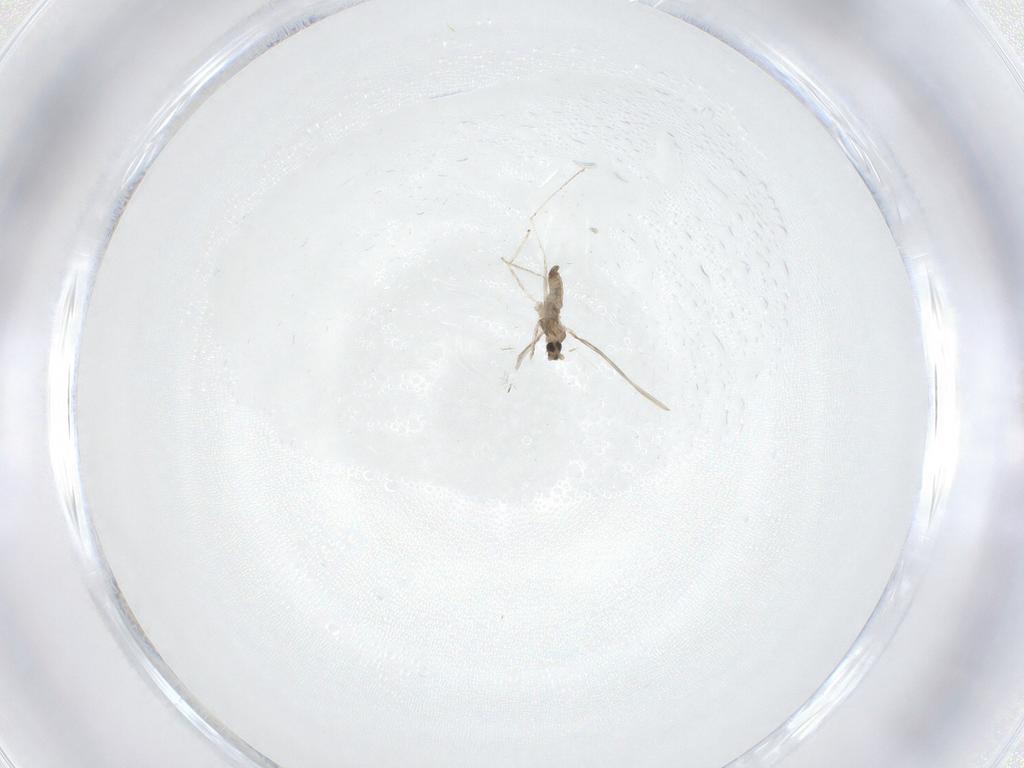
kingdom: Animalia
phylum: Arthropoda
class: Insecta
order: Diptera
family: Cecidomyiidae
